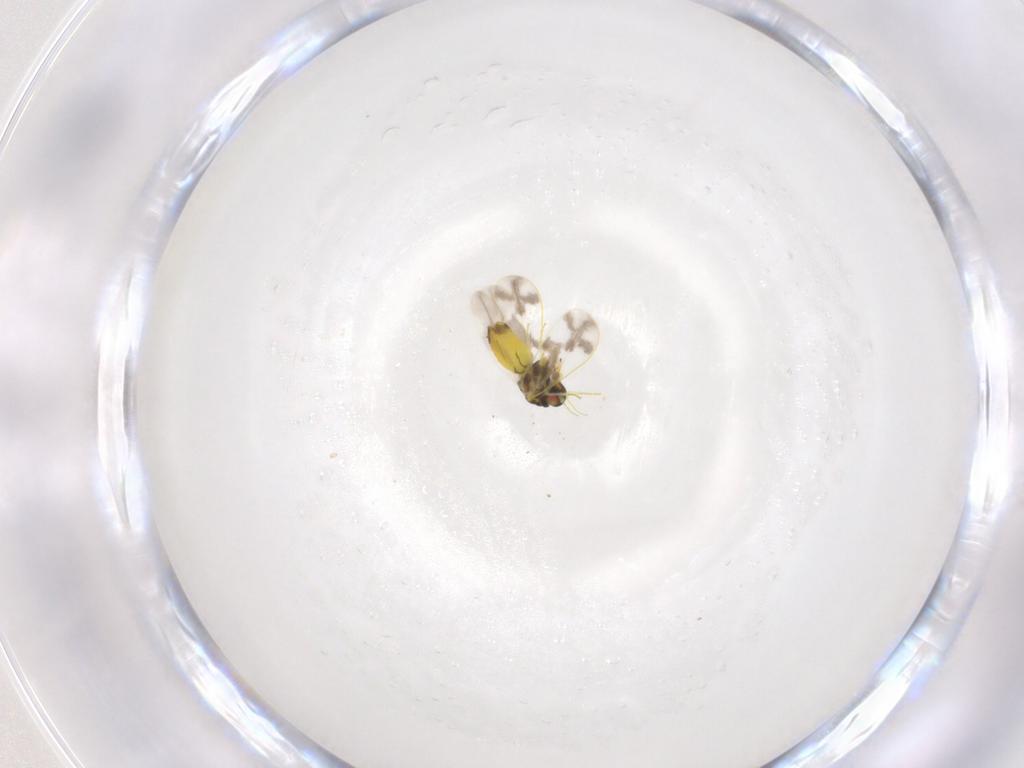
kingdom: Animalia
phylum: Arthropoda
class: Insecta
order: Hemiptera
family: Aleyrodidae
